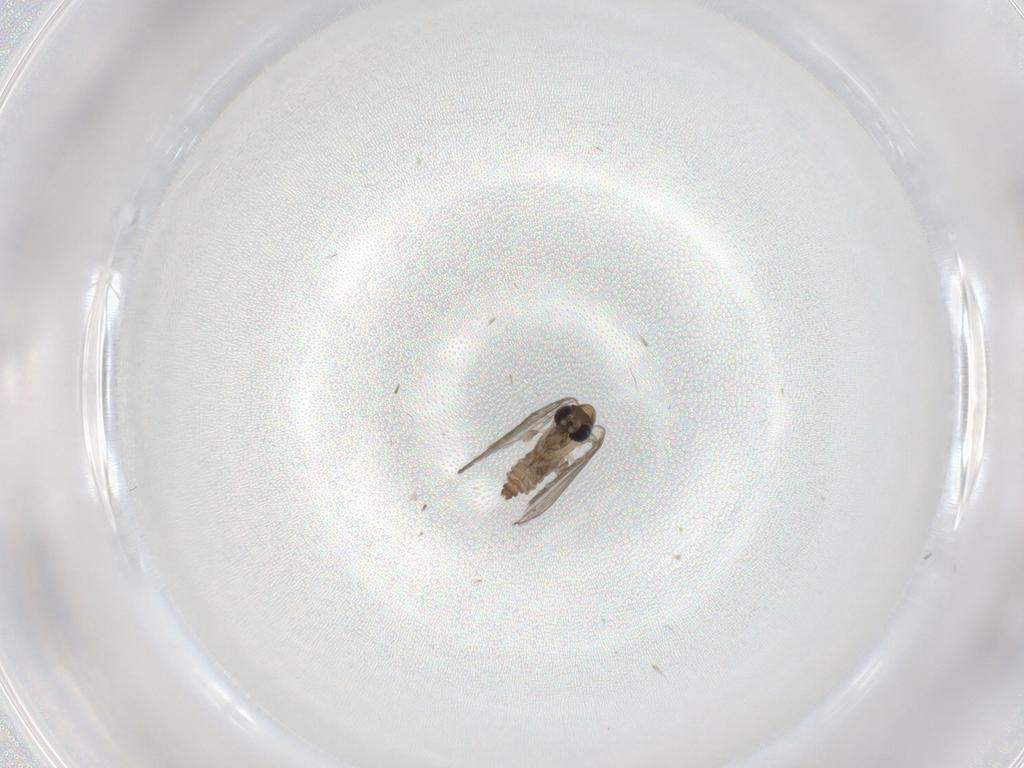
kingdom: Animalia
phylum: Arthropoda
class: Insecta
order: Diptera
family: Psychodidae
